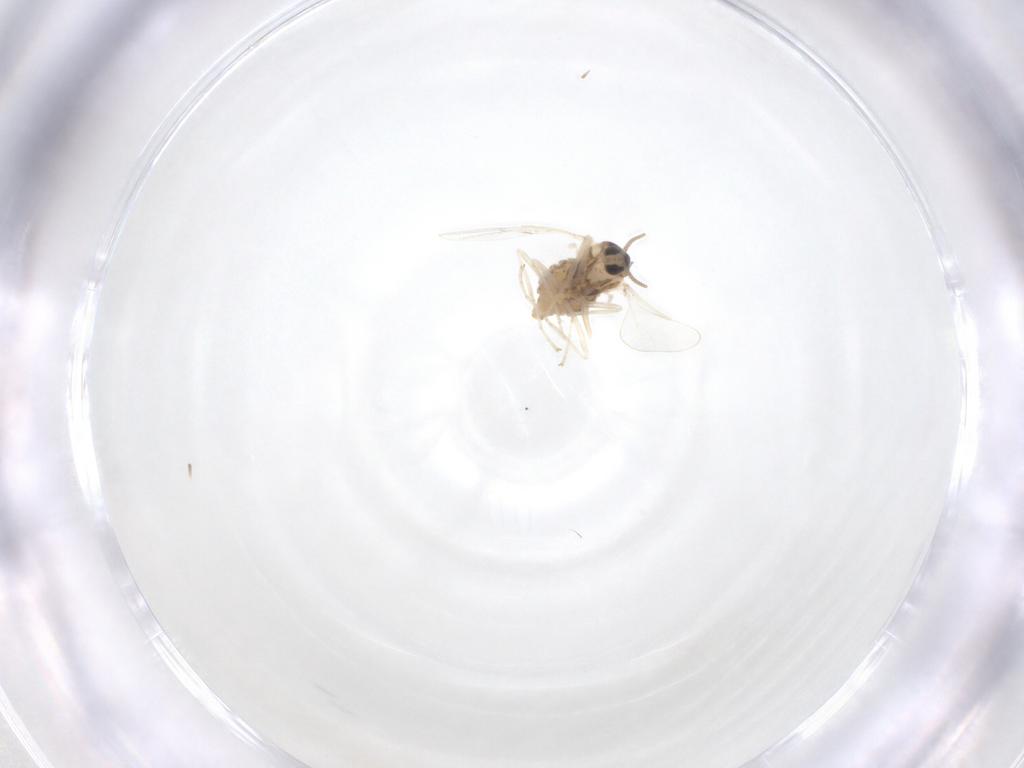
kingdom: Animalia
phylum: Arthropoda
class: Insecta
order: Diptera
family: Cecidomyiidae
